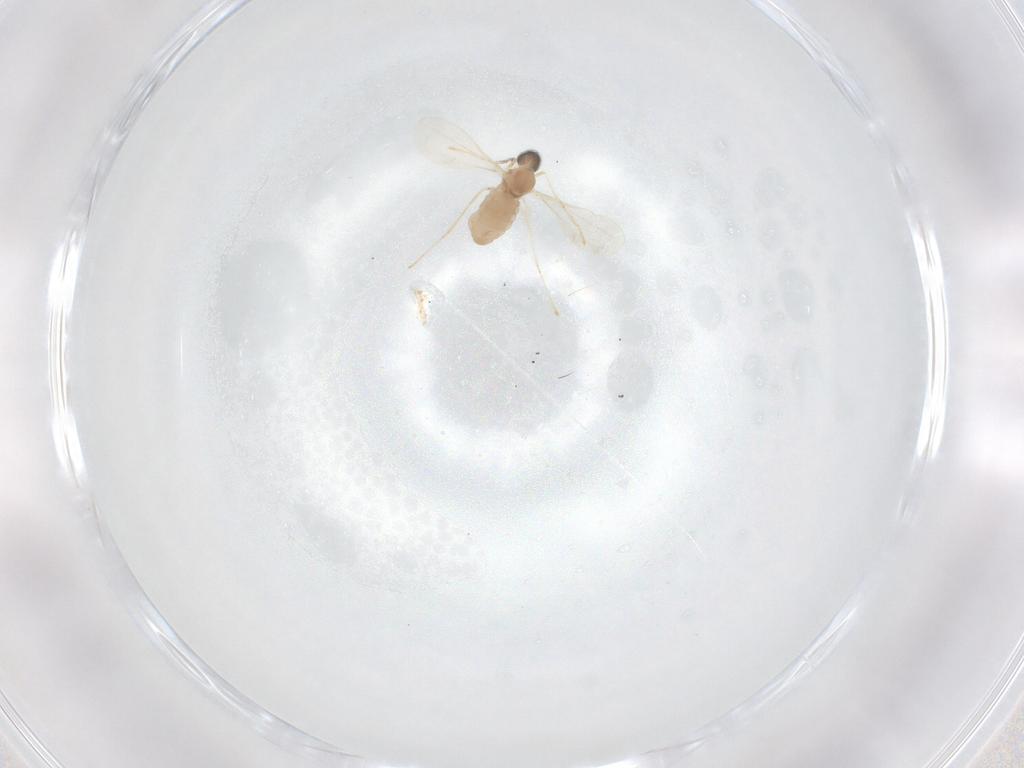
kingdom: Animalia
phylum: Arthropoda
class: Insecta
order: Diptera
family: Cecidomyiidae
